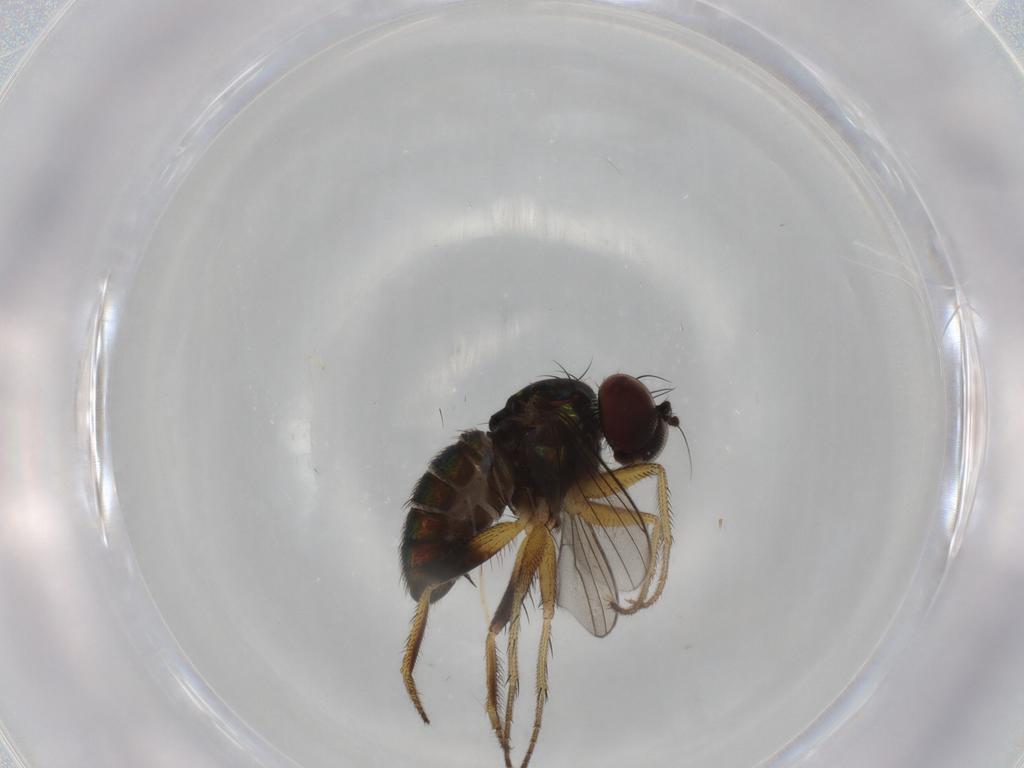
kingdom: Animalia
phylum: Arthropoda
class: Insecta
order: Diptera
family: Dolichopodidae
